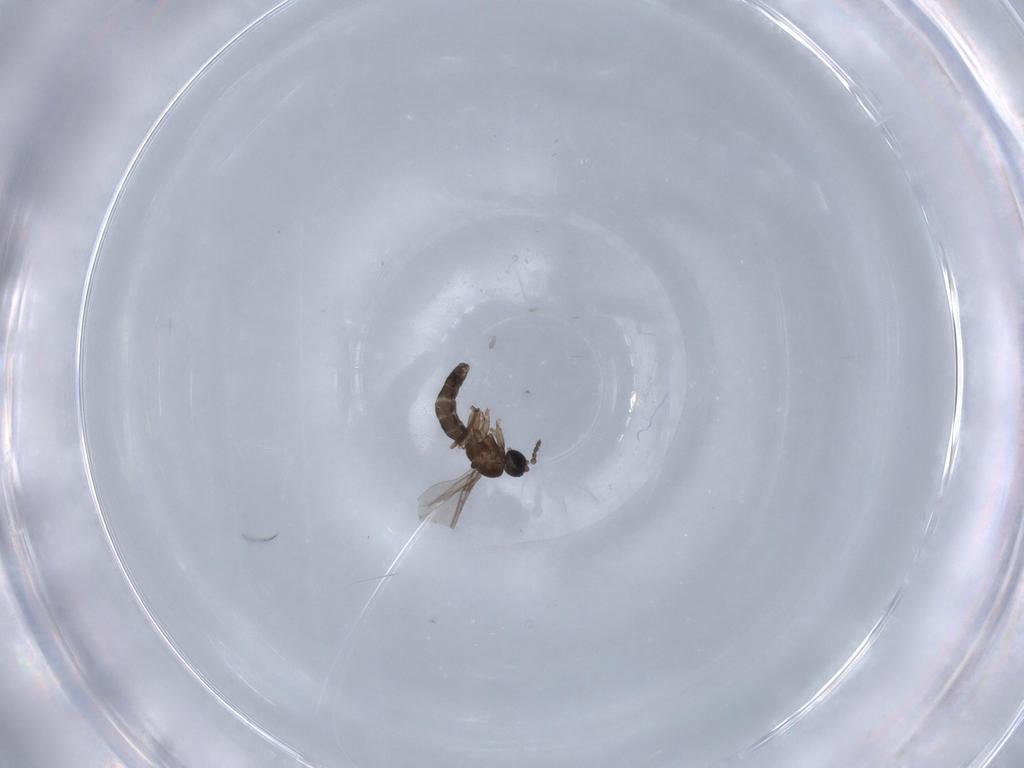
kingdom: Animalia
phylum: Arthropoda
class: Insecta
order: Diptera
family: Sciaridae
